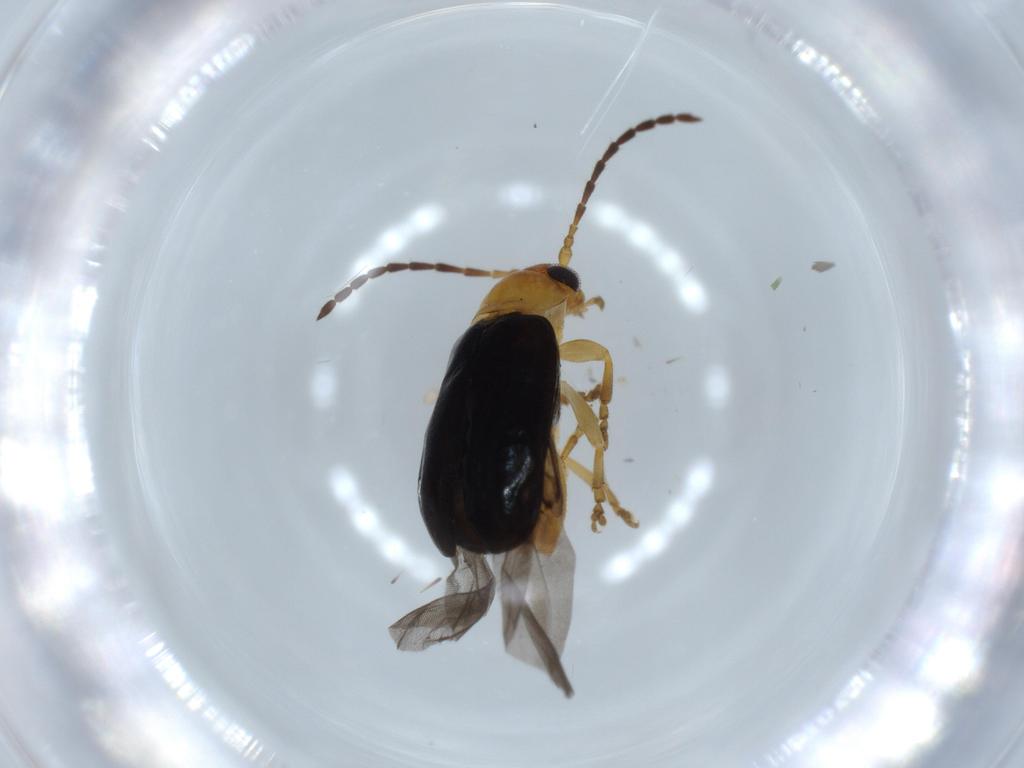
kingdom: Animalia
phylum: Arthropoda
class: Insecta
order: Coleoptera
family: Chrysomelidae
